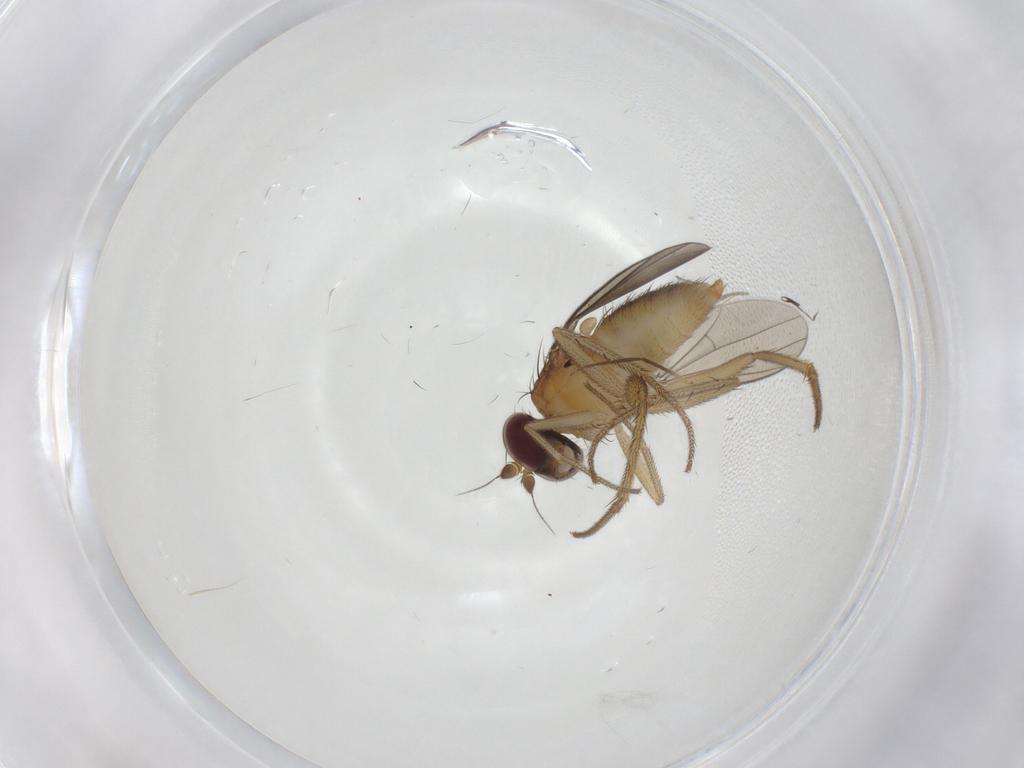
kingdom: Animalia
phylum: Arthropoda
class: Insecta
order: Diptera
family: Dolichopodidae
